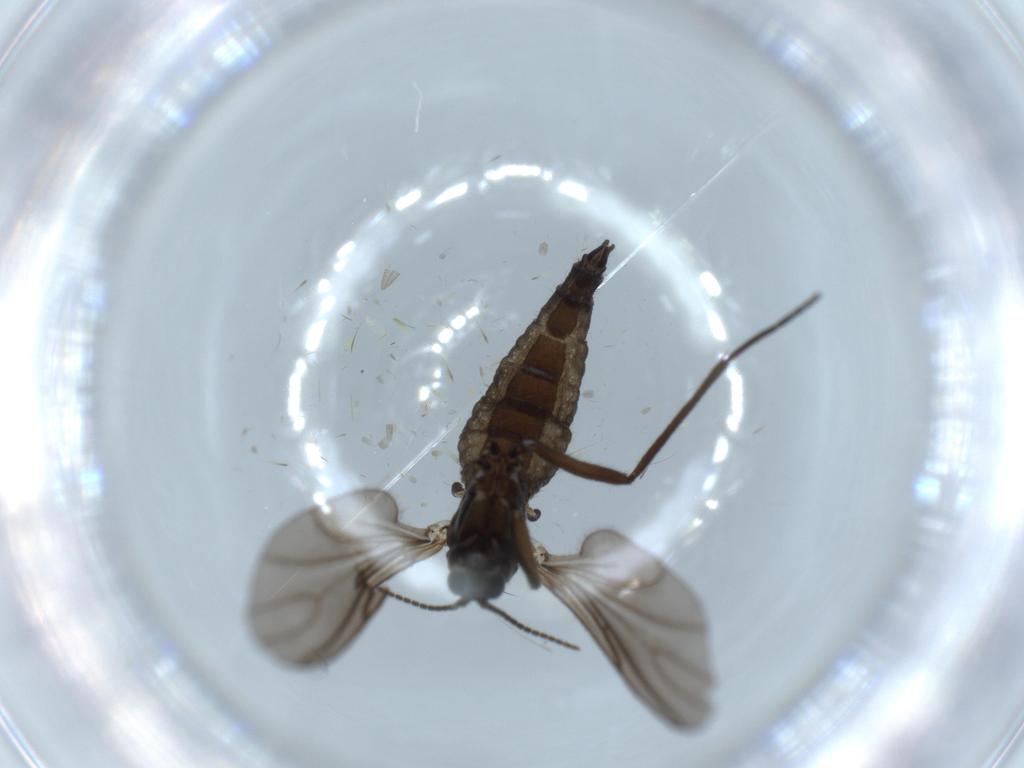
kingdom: Animalia
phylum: Arthropoda
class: Insecta
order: Diptera
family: Sciaridae
